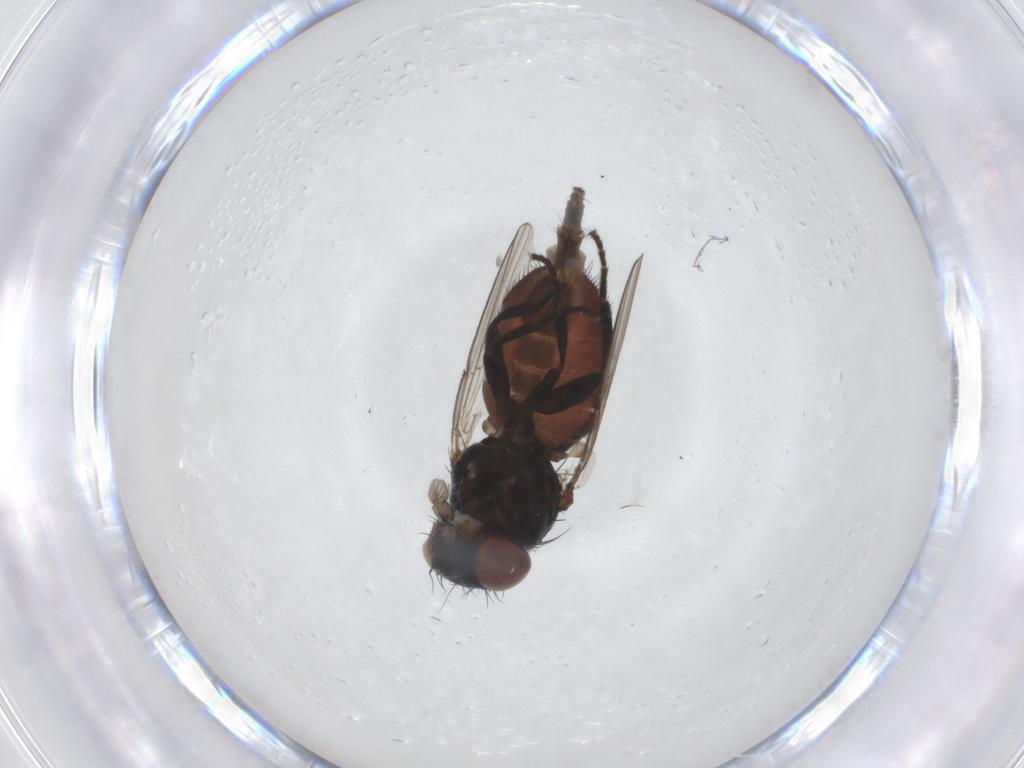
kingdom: Animalia
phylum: Arthropoda
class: Insecta
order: Diptera
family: Milichiidae
